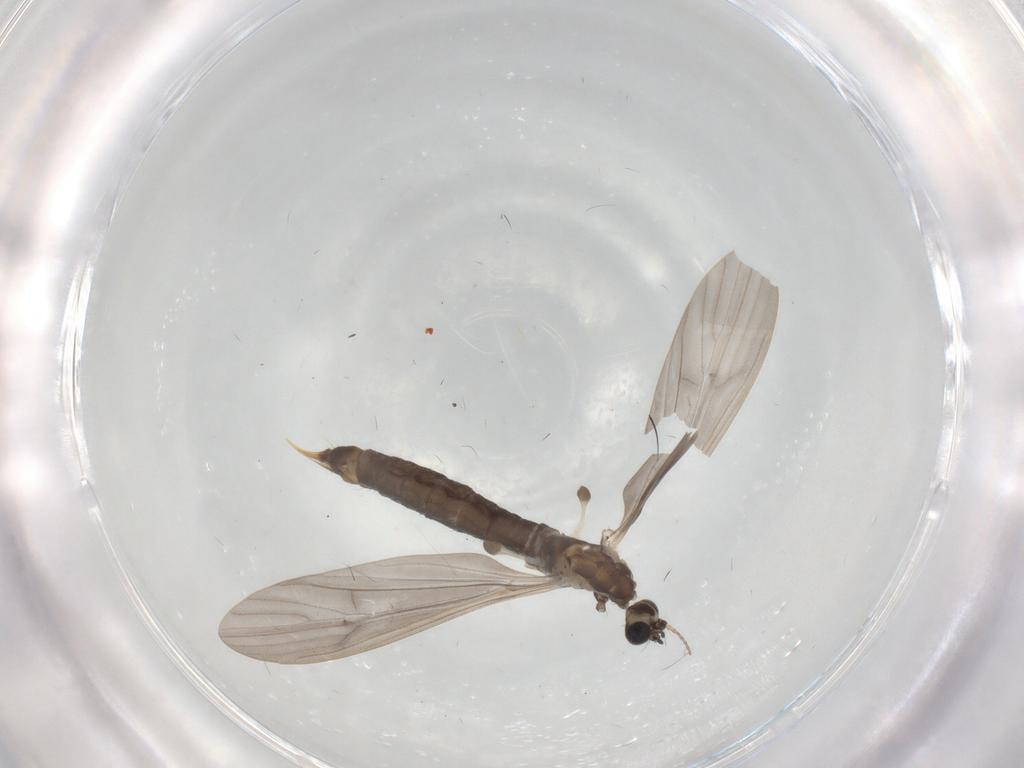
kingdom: Animalia
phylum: Arthropoda
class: Insecta
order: Diptera
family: Limoniidae
